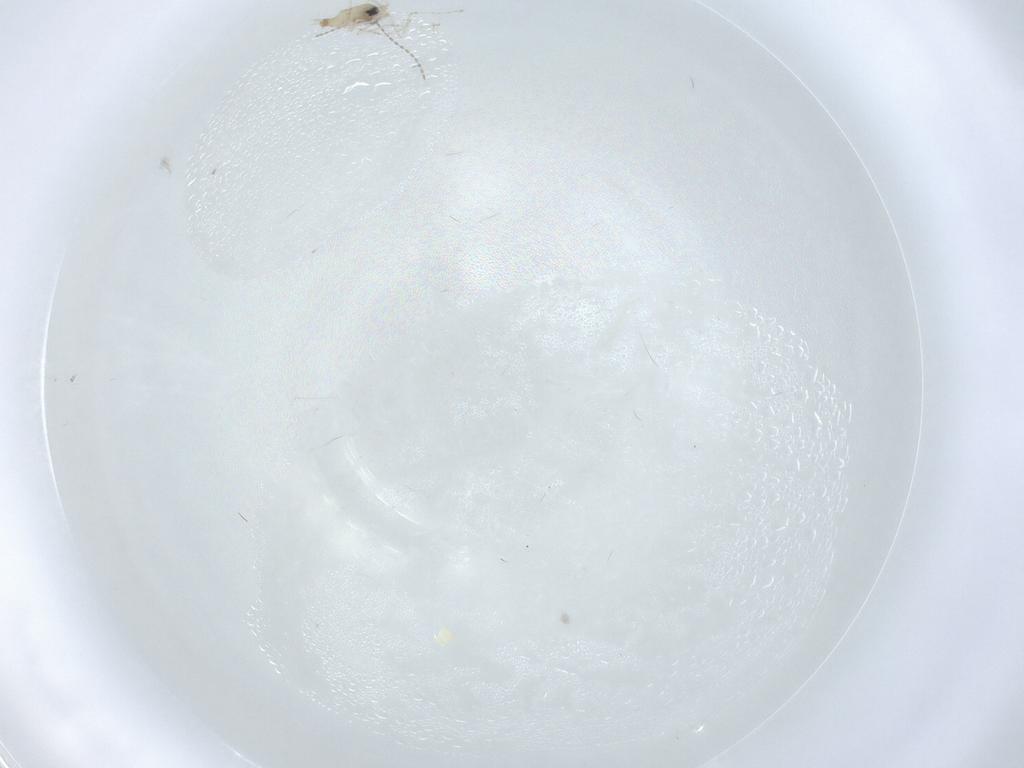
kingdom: Animalia
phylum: Arthropoda
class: Insecta
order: Diptera
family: Cecidomyiidae
